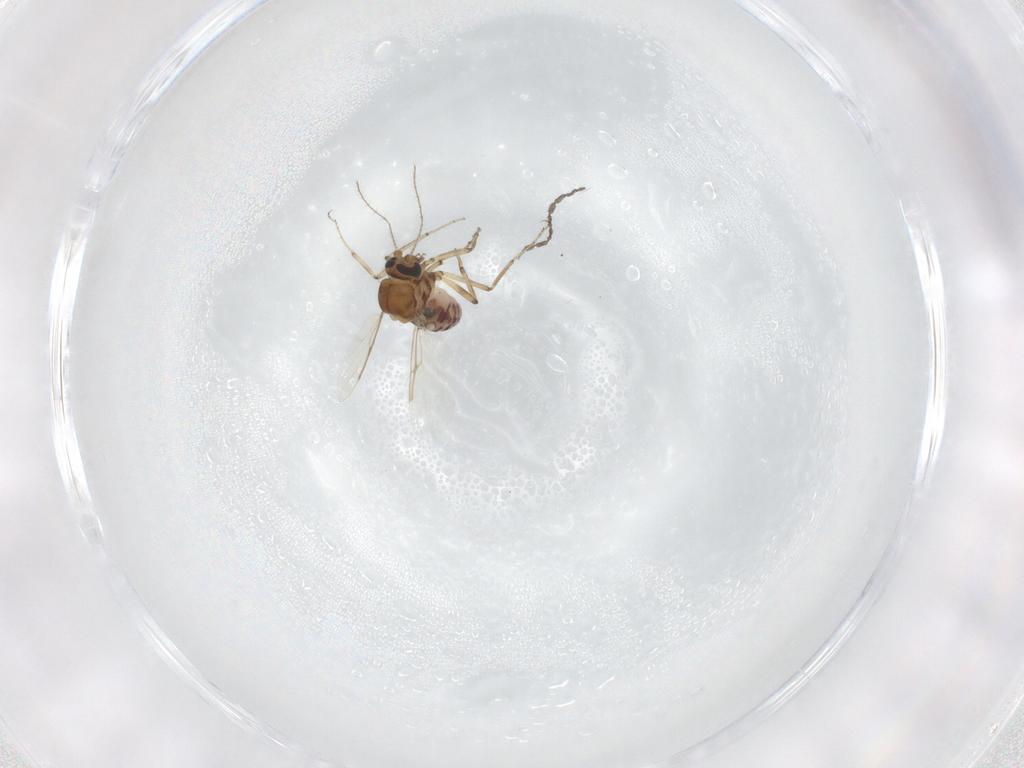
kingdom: Animalia
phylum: Arthropoda
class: Insecta
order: Diptera
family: Ceratopogonidae
